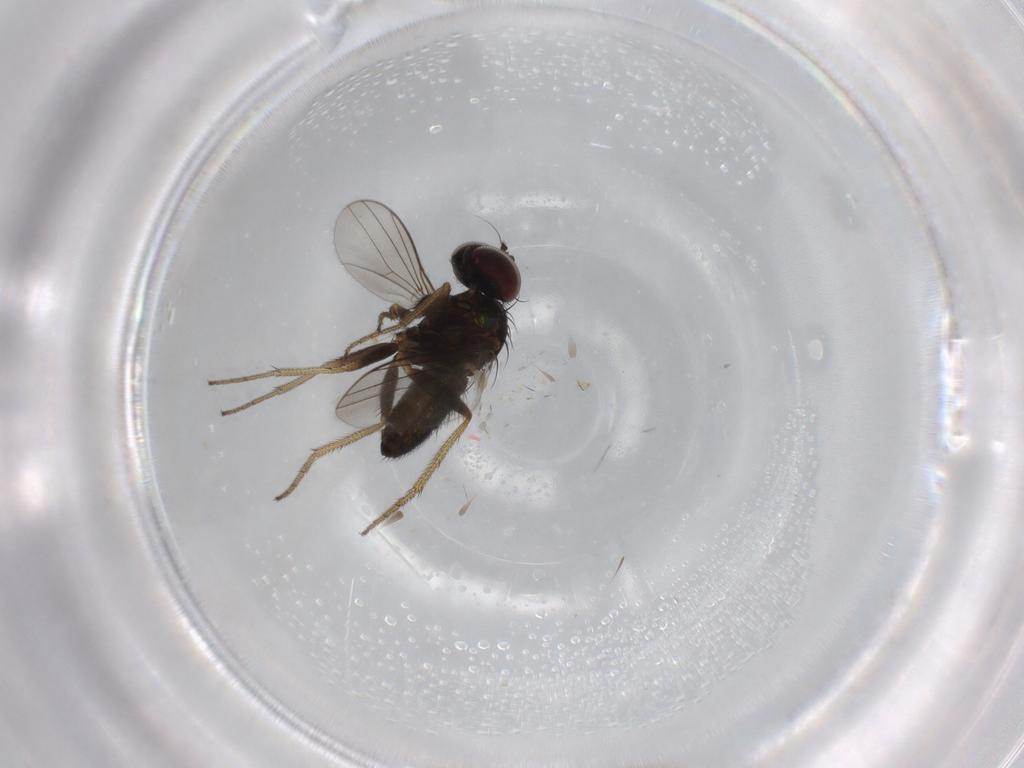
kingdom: Animalia
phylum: Arthropoda
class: Insecta
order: Diptera
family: Dolichopodidae
